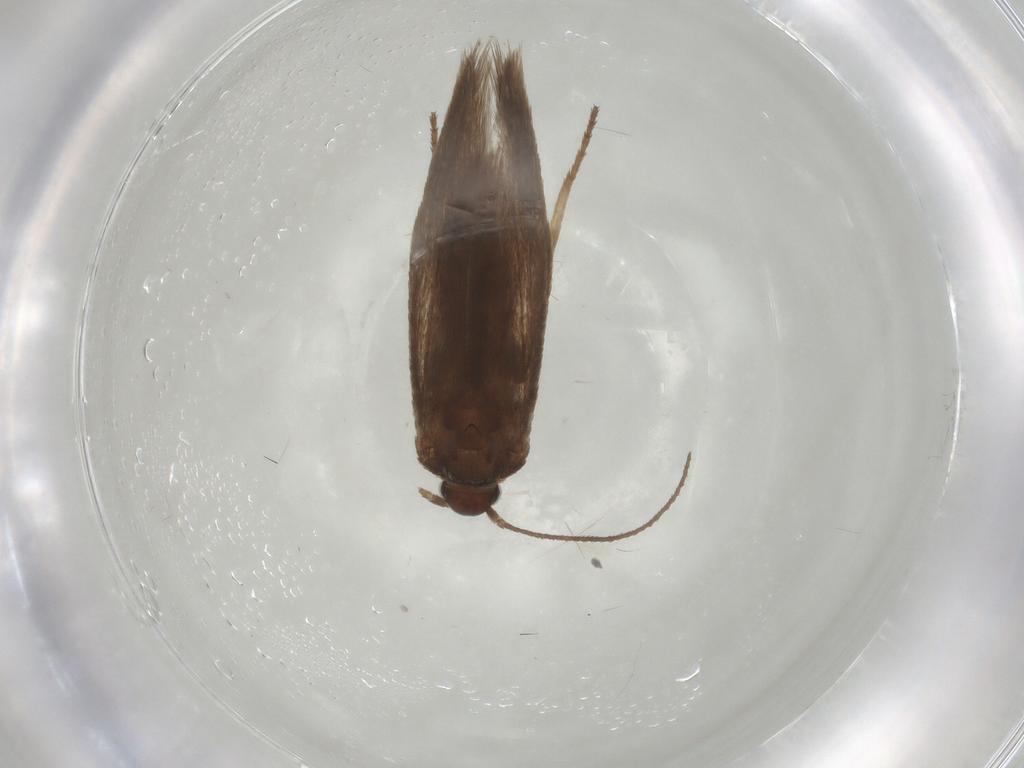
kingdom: Animalia
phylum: Arthropoda
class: Insecta
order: Lepidoptera
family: Limacodidae
